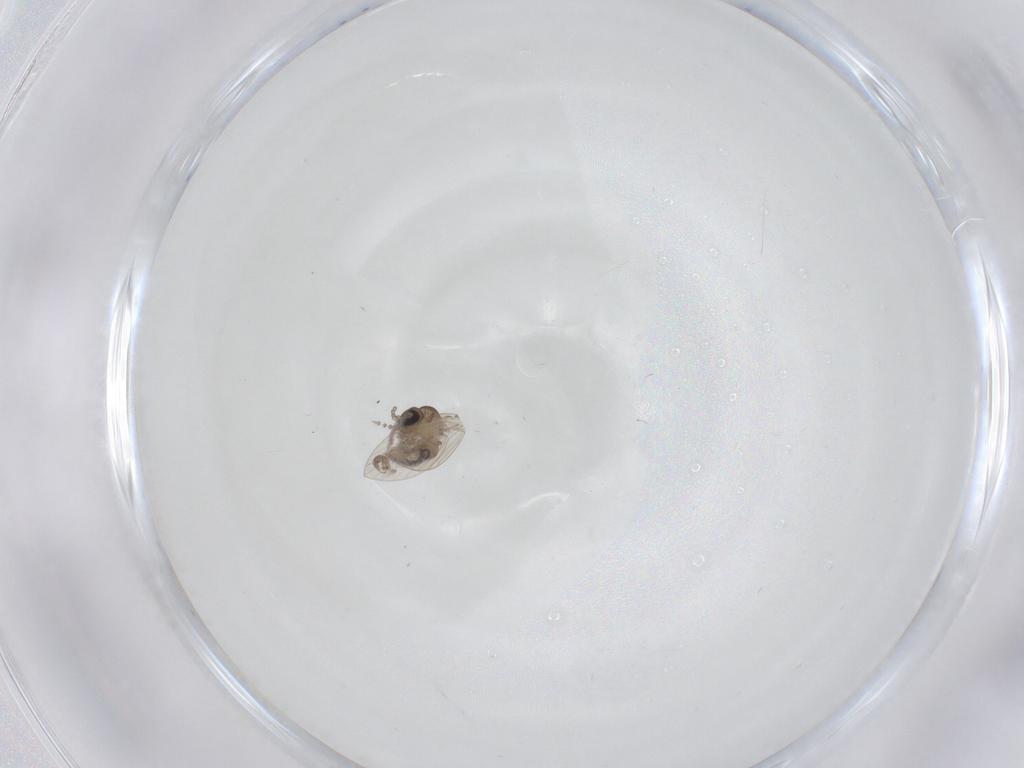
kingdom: Animalia
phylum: Arthropoda
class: Insecta
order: Diptera
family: Psychodidae
